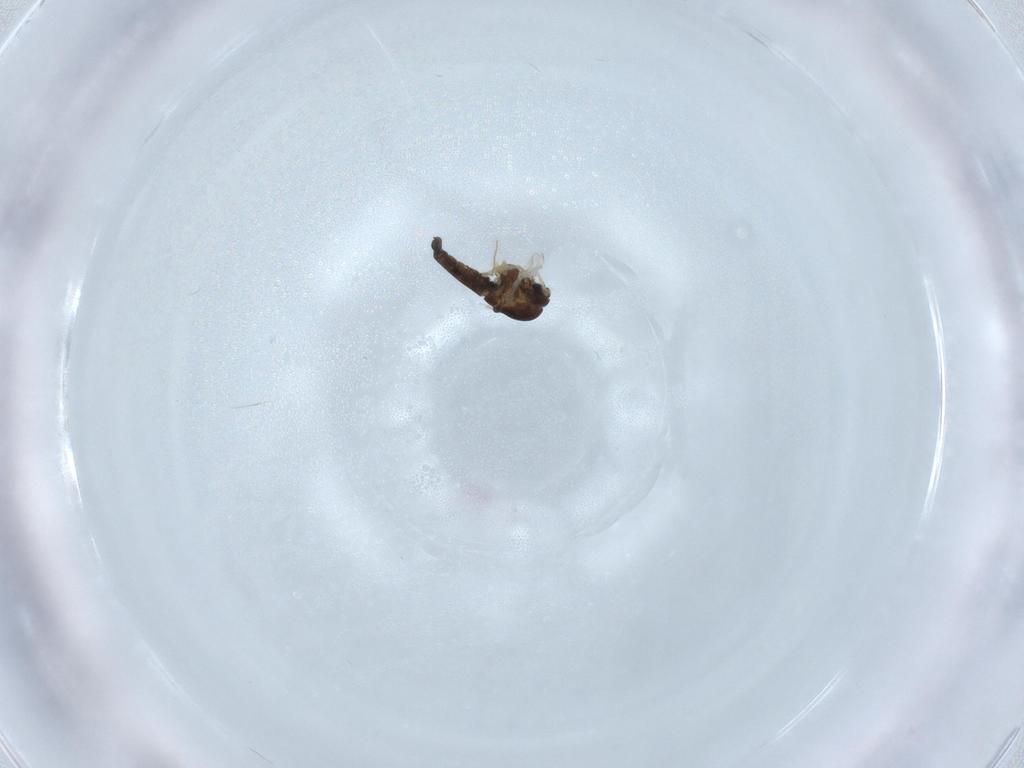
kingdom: Animalia
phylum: Arthropoda
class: Insecta
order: Diptera
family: Chironomidae
